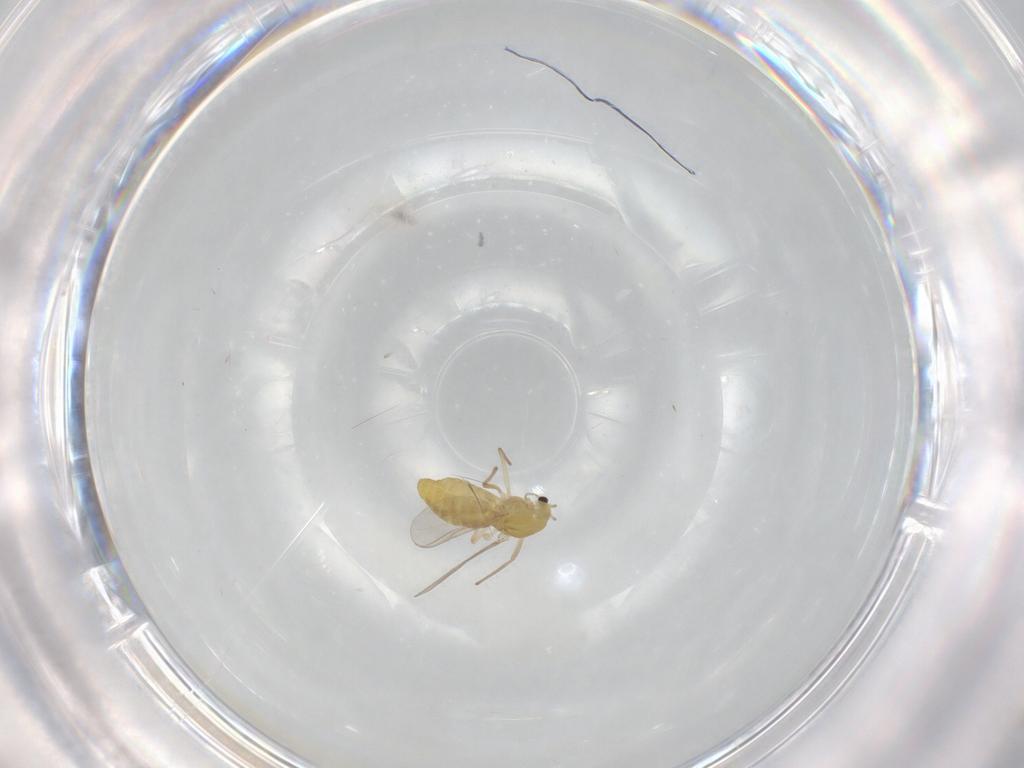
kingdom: Animalia
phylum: Arthropoda
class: Insecta
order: Diptera
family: Chironomidae
